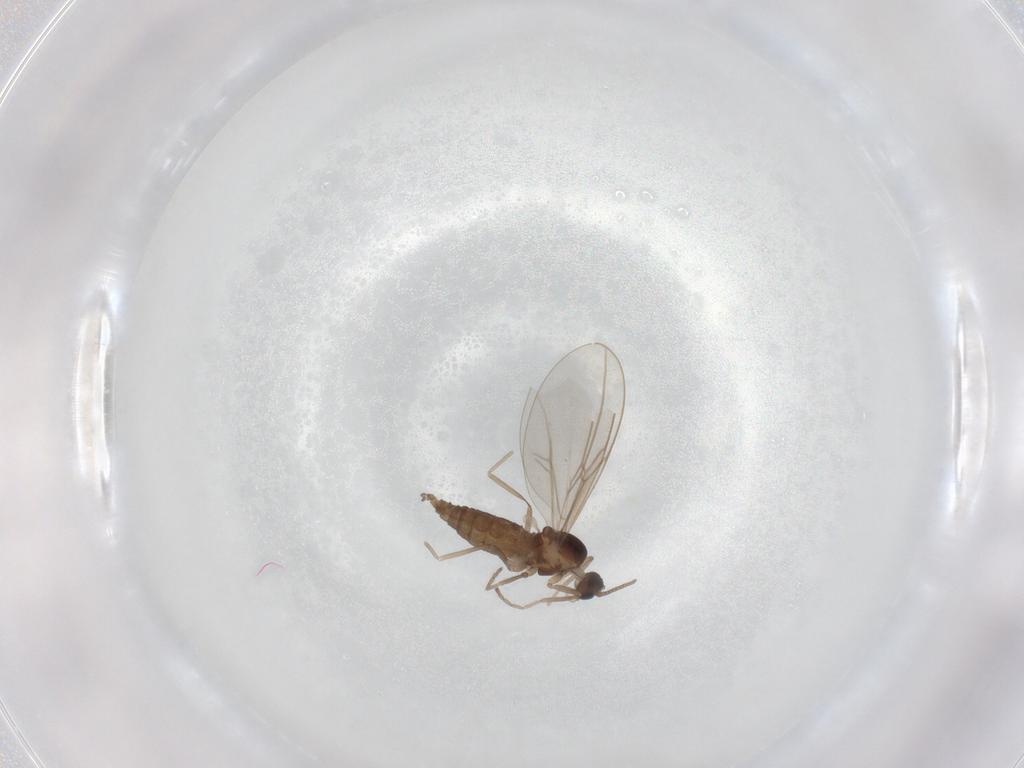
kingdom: Animalia
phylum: Arthropoda
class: Insecta
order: Diptera
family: Cecidomyiidae
